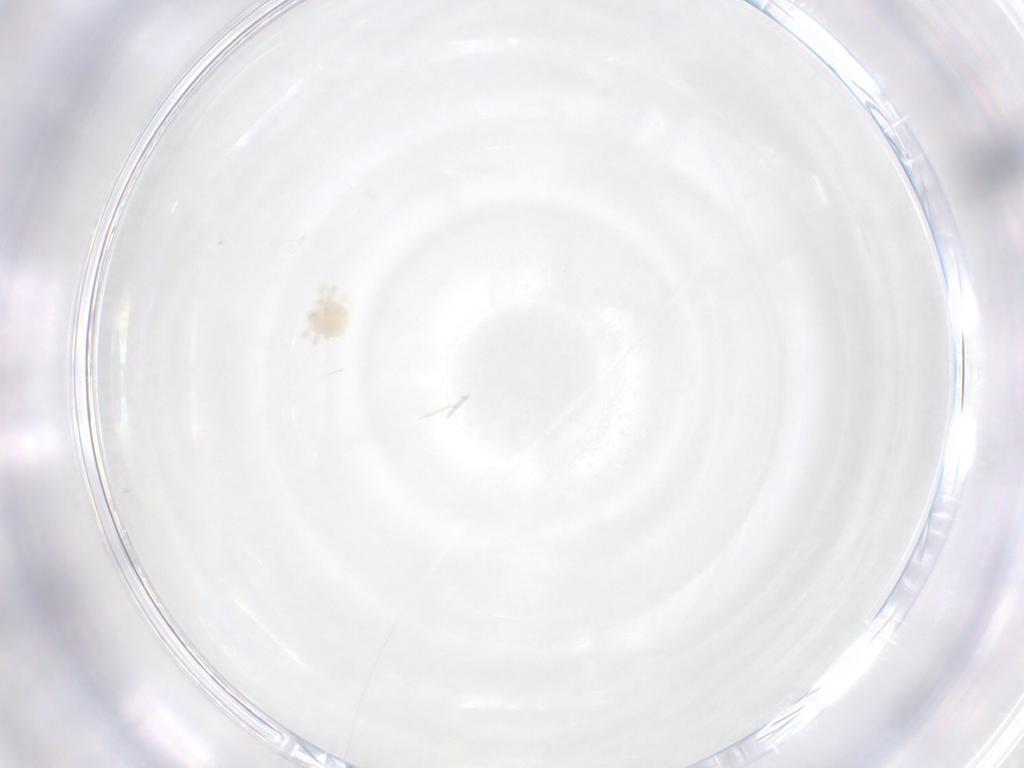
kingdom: Animalia
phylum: Arthropoda
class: Arachnida
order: Trombidiformes
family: Anystidae
